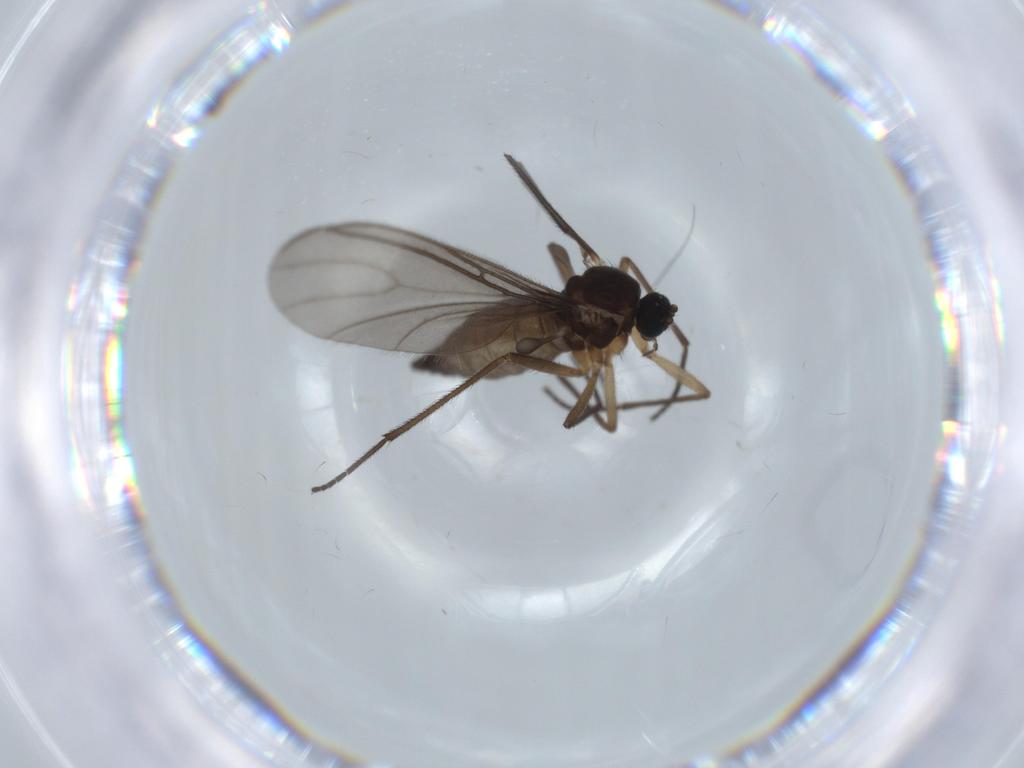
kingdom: Animalia
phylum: Arthropoda
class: Insecta
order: Diptera
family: Sciaridae
